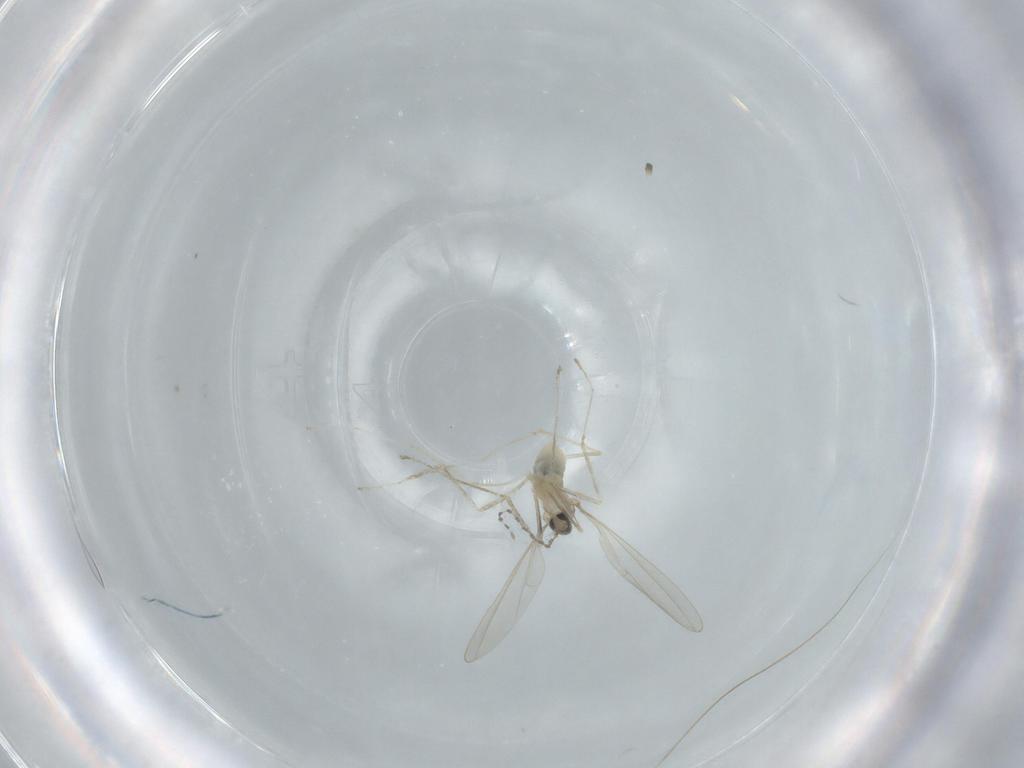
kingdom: Animalia
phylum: Arthropoda
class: Insecta
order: Diptera
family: Cecidomyiidae
